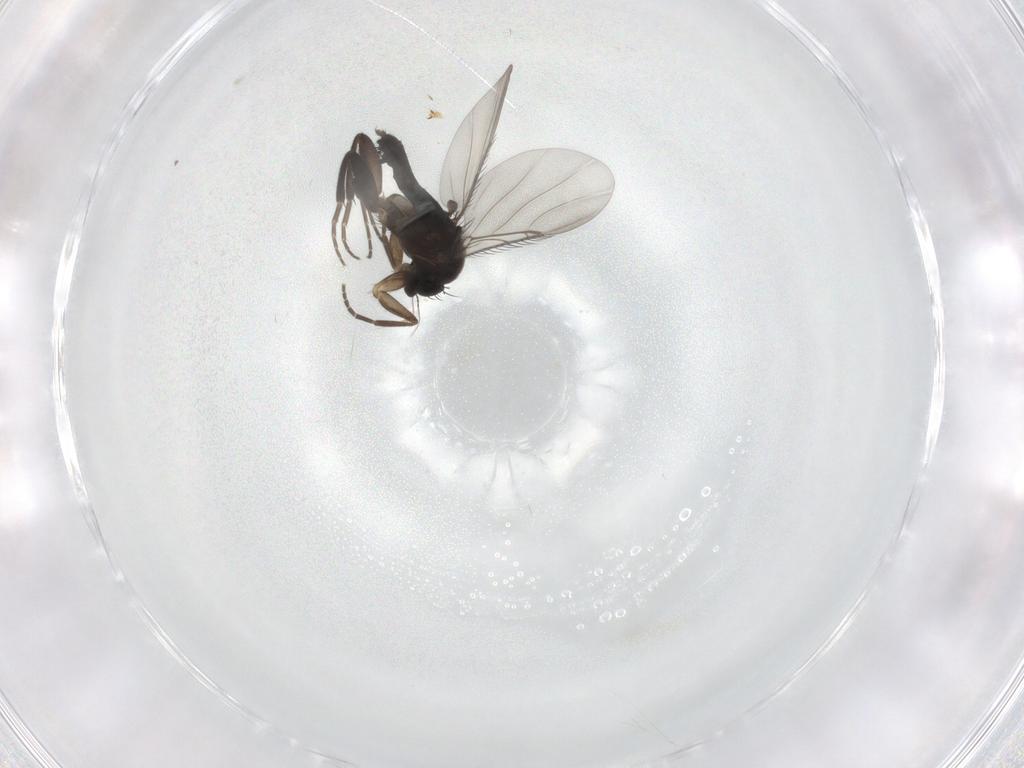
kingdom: Animalia
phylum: Arthropoda
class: Insecta
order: Diptera
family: Phoridae
